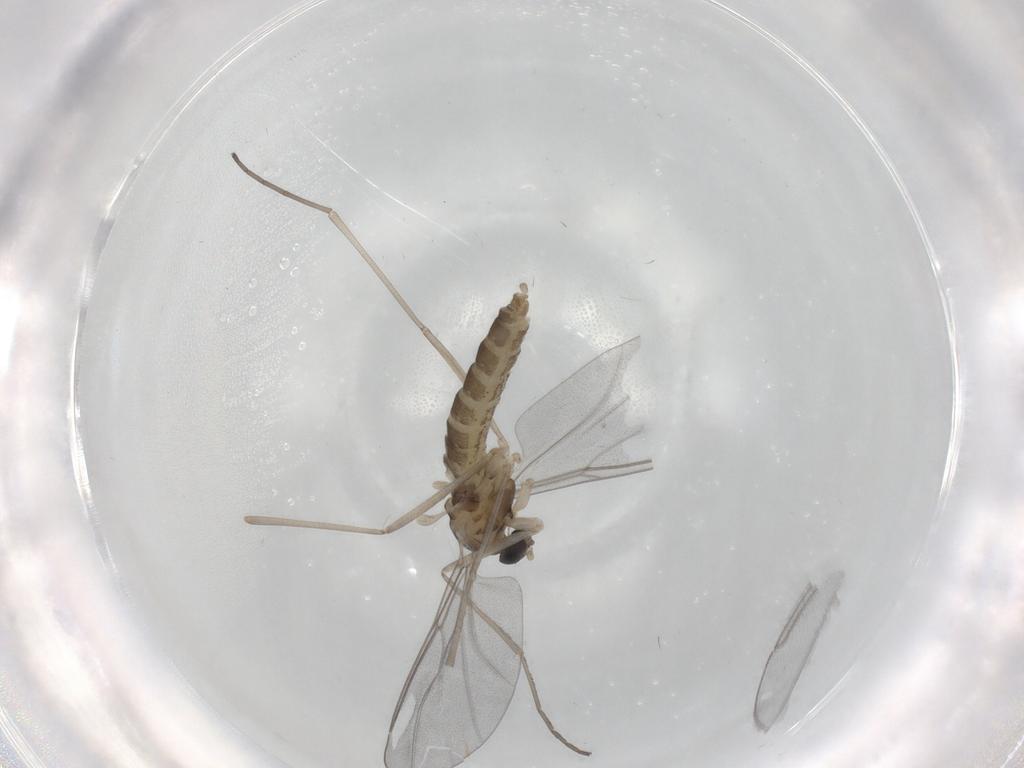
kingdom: Animalia
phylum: Arthropoda
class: Insecta
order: Diptera
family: Cecidomyiidae
